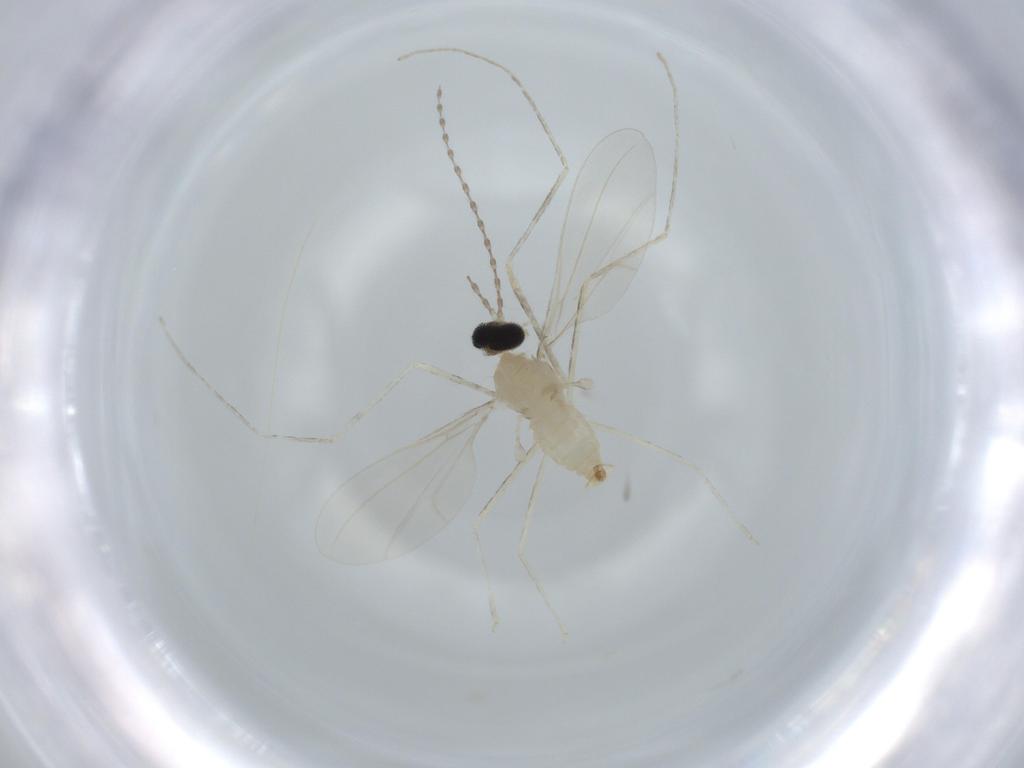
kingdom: Animalia
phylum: Arthropoda
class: Insecta
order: Diptera
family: Cecidomyiidae
